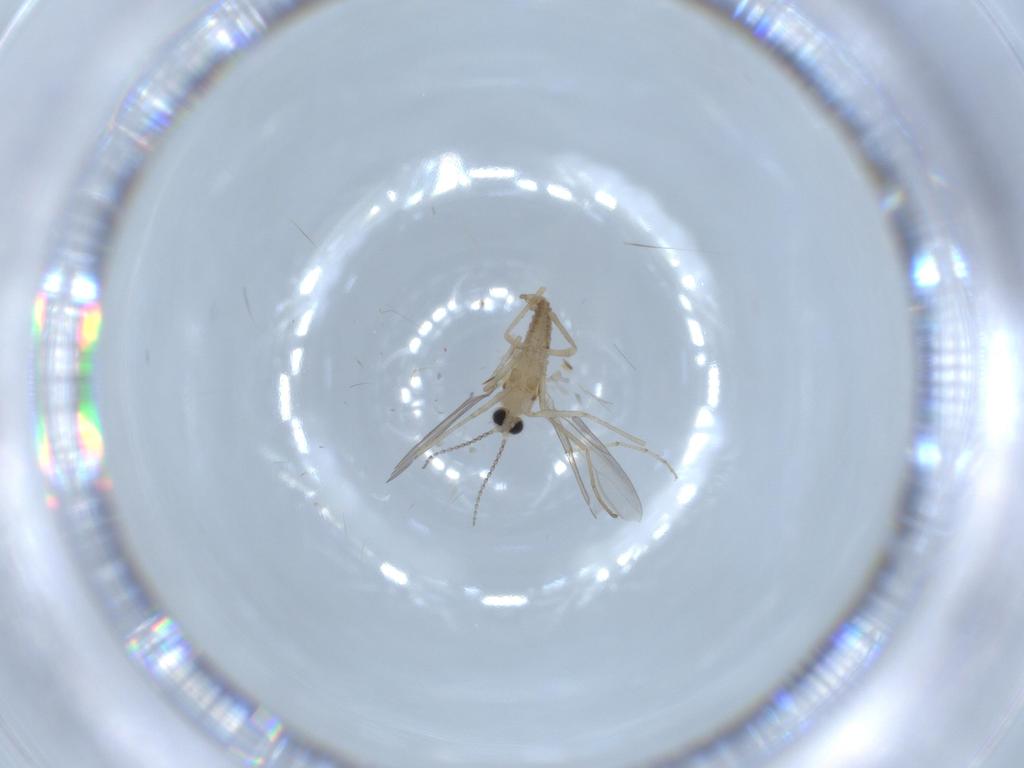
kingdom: Animalia
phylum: Arthropoda
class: Insecta
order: Diptera
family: Cecidomyiidae
